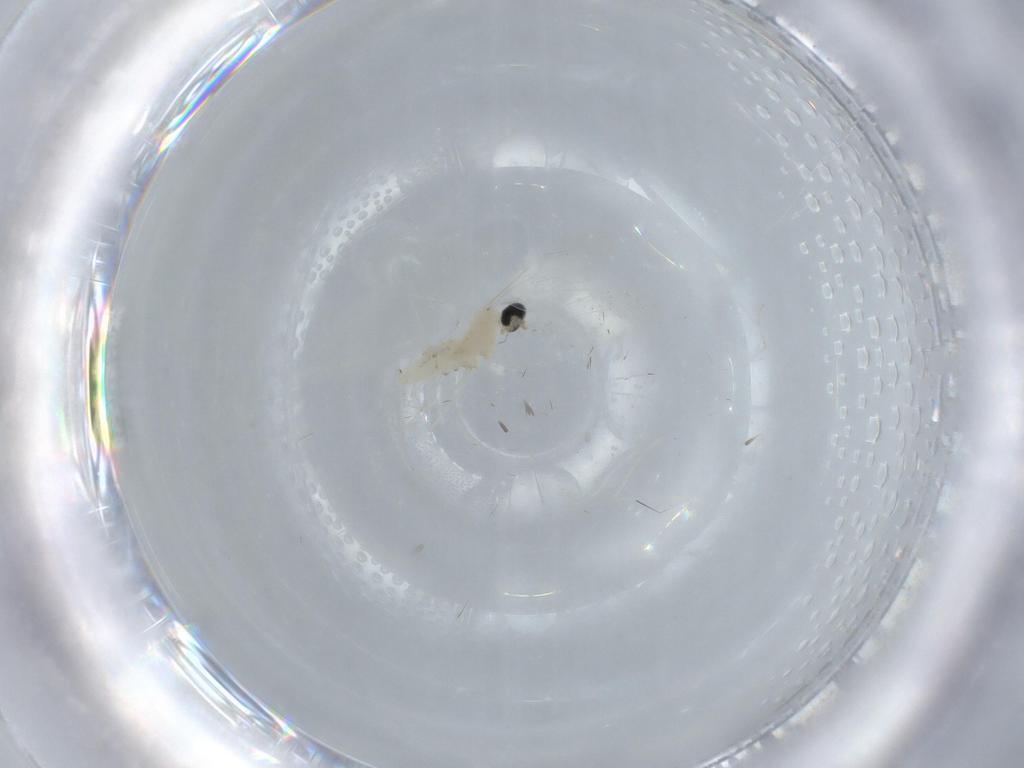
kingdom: Animalia
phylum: Arthropoda
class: Insecta
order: Diptera
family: Cecidomyiidae
